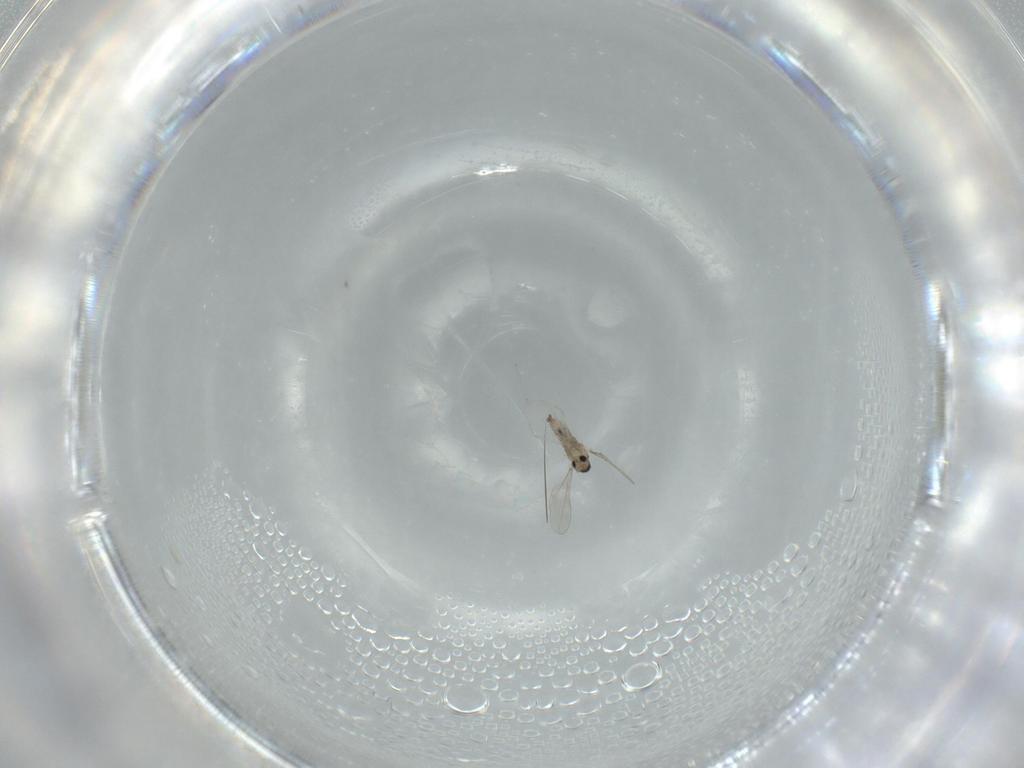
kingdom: Animalia
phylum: Arthropoda
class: Insecta
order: Diptera
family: Cecidomyiidae
